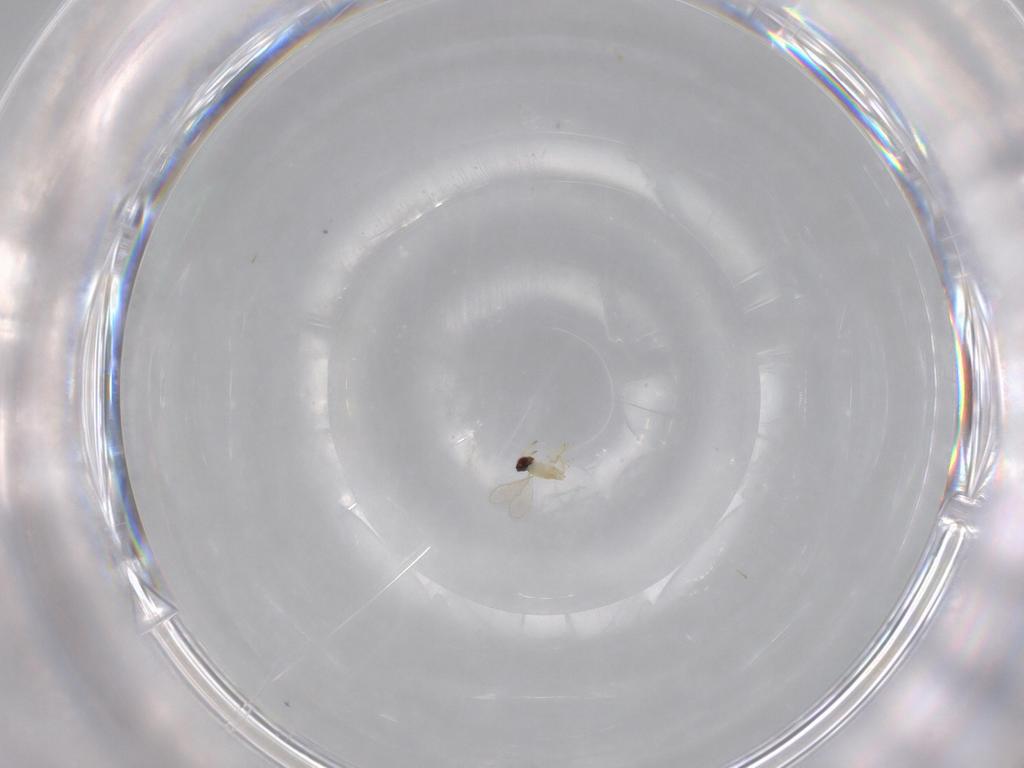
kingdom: Animalia
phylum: Arthropoda
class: Insecta
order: Hymenoptera
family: Aphelinidae
